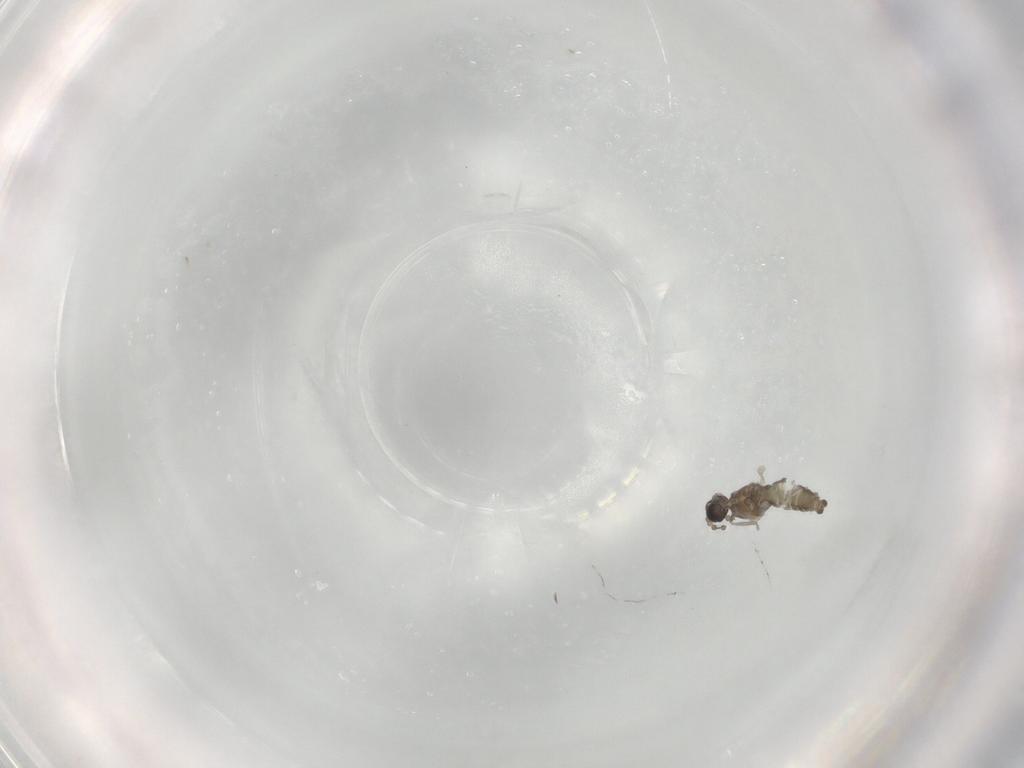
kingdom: Animalia
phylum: Arthropoda
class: Insecta
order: Diptera
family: Cecidomyiidae
